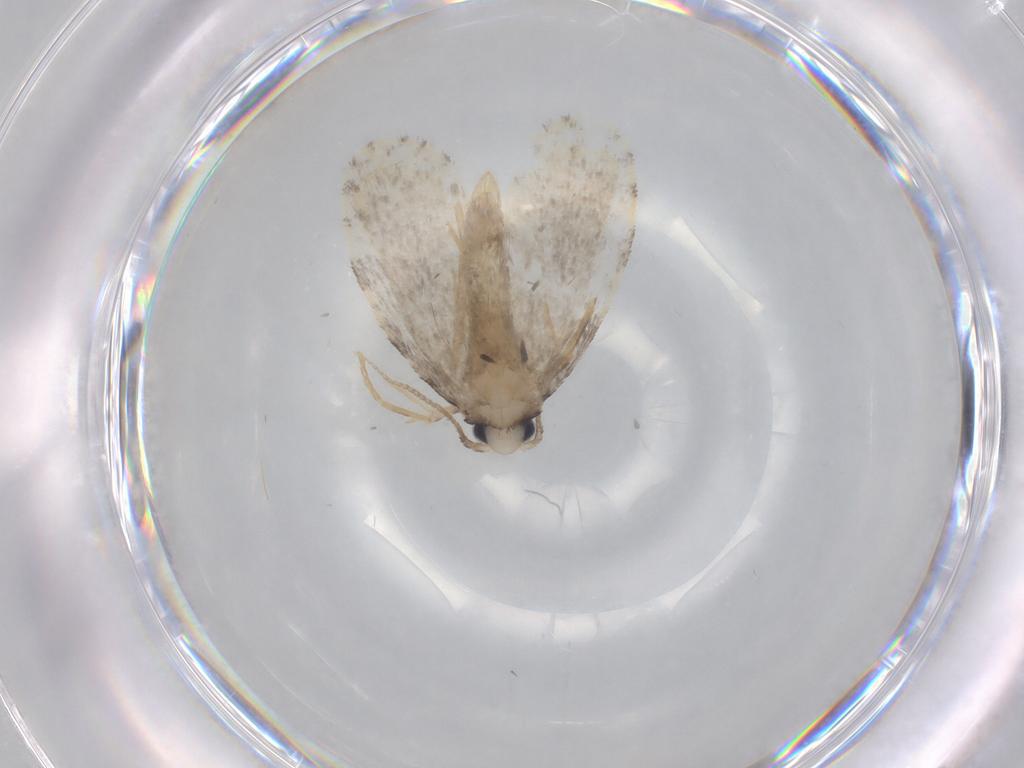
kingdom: Animalia
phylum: Arthropoda
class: Insecta
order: Lepidoptera
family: Psychidae
